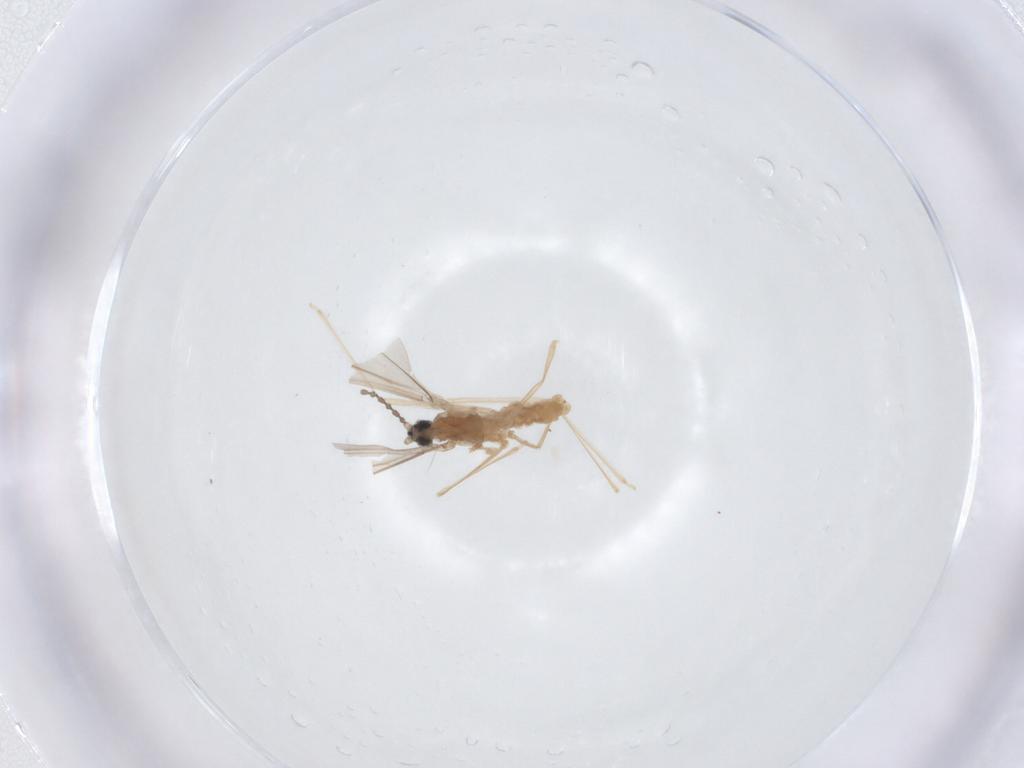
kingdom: Animalia
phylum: Arthropoda
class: Insecta
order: Diptera
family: Cecidomyiidae
